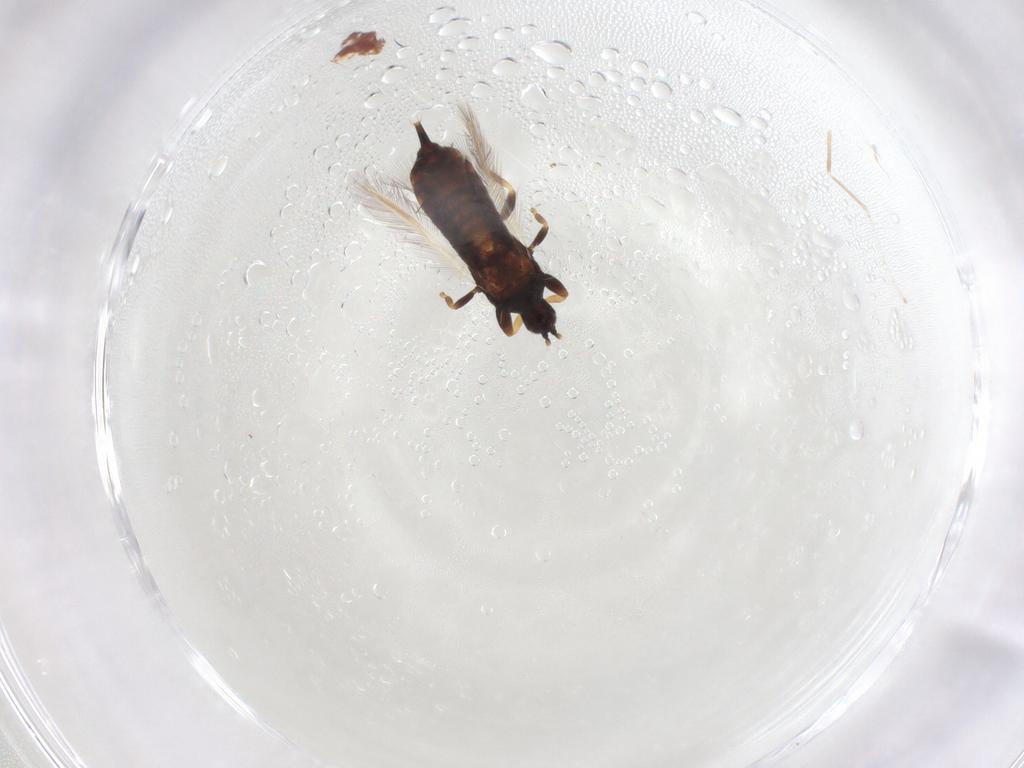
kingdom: Animalia
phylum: Arthropoda
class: Insecta
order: Thysanoptera
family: Phlaeothripidae
